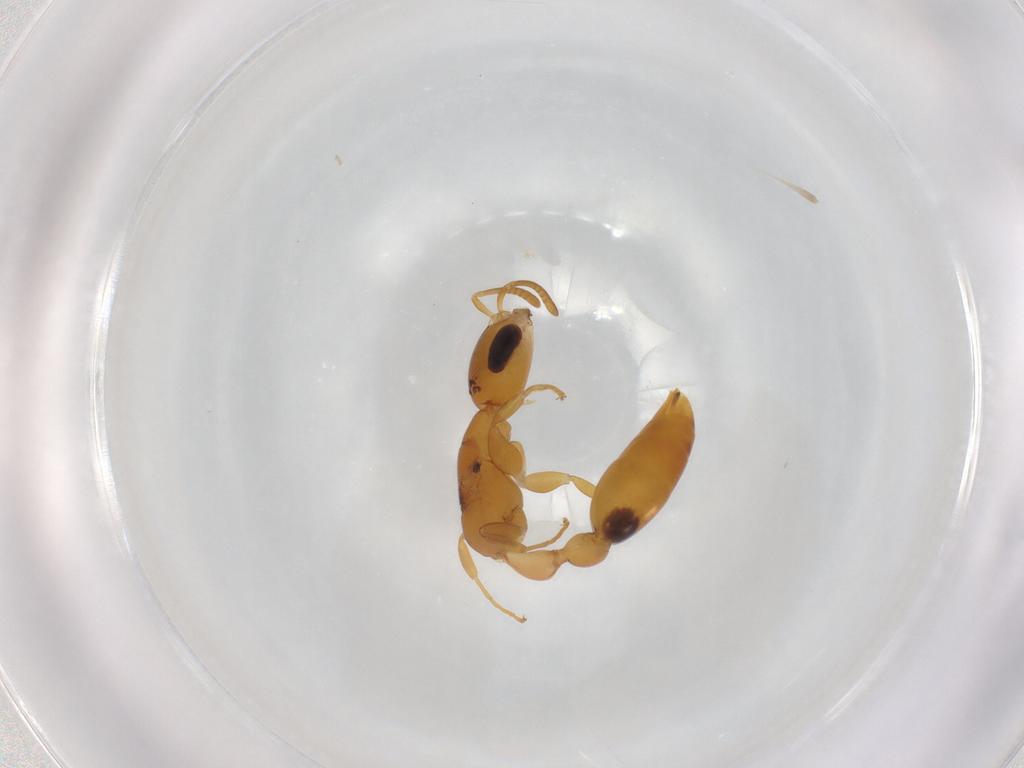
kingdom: Animalia
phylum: Arthropoda
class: Insecta
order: Hymenoptera
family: Formicidae
